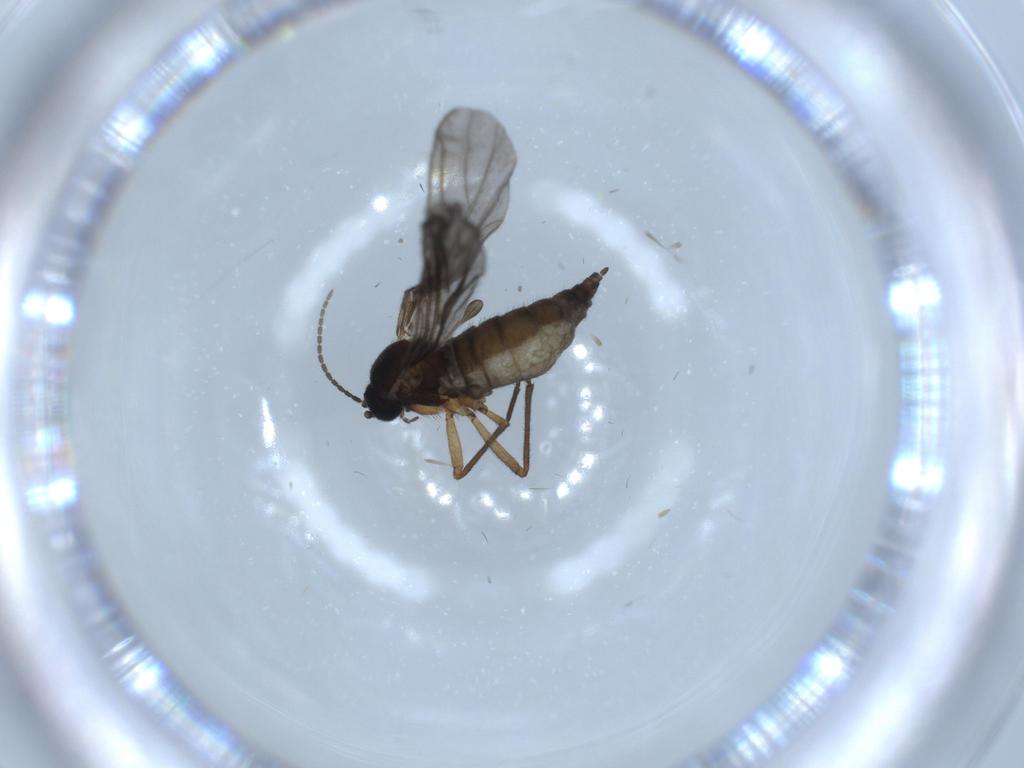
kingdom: Animalia
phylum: Arthropoda
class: Insecta
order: Diptera
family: Sciaridae
